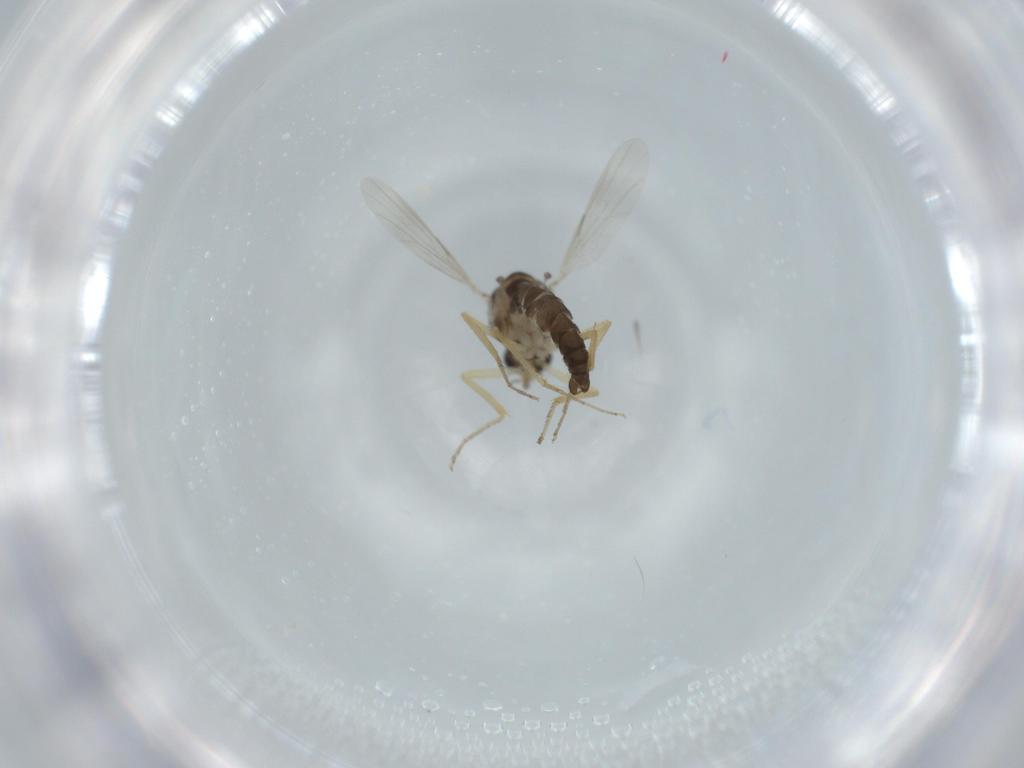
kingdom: Animalia
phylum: Arthropoda
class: Insecta
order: Diptera
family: Ceratopogonidae
